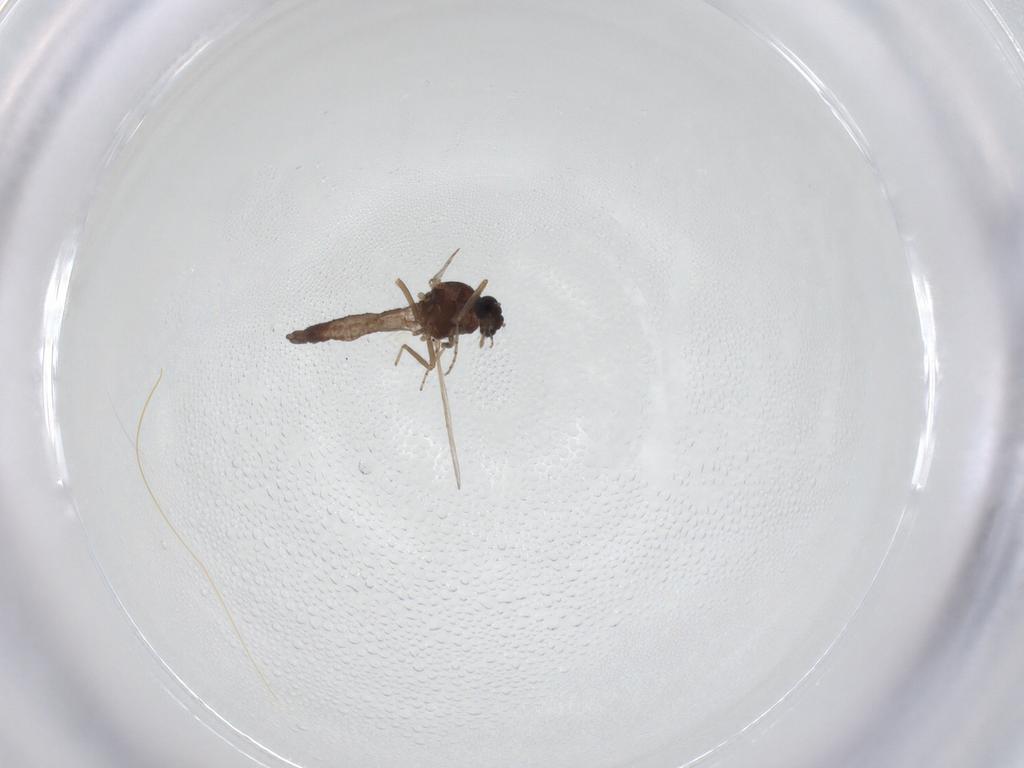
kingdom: Animalia
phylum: Arthropoda
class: Insecta
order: Diptera
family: Ceratopogonidae
